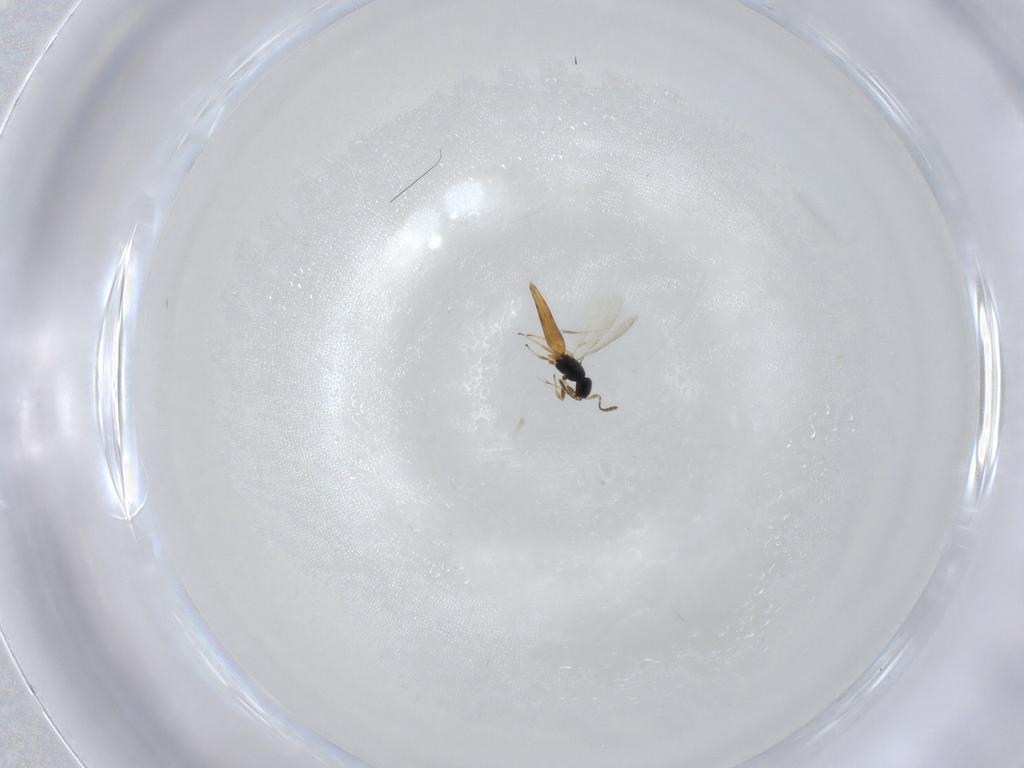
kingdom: Animalia
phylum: Arthropoda
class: Insecta
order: Hymenoptera
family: Scelionidae
